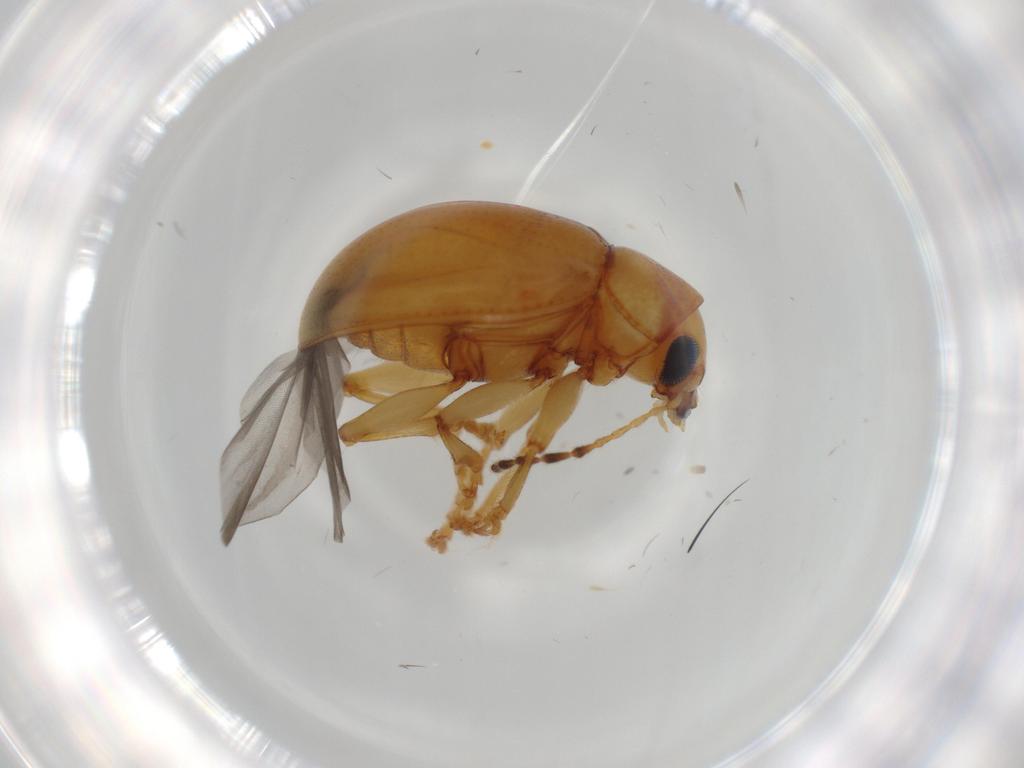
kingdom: Animalia
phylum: Arthropoda
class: Insecta
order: Coleoptera
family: Chrysomelidae
